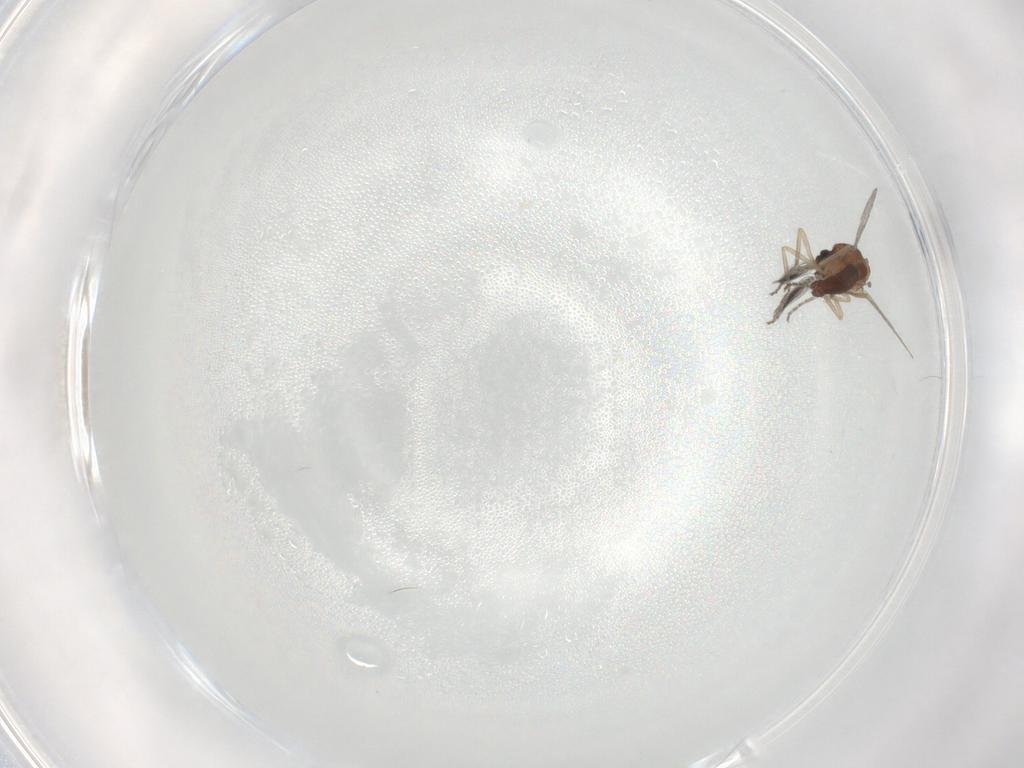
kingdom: Animalia
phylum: Arthropoda
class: Insecta
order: Diptera
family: Ceratopogonidae
